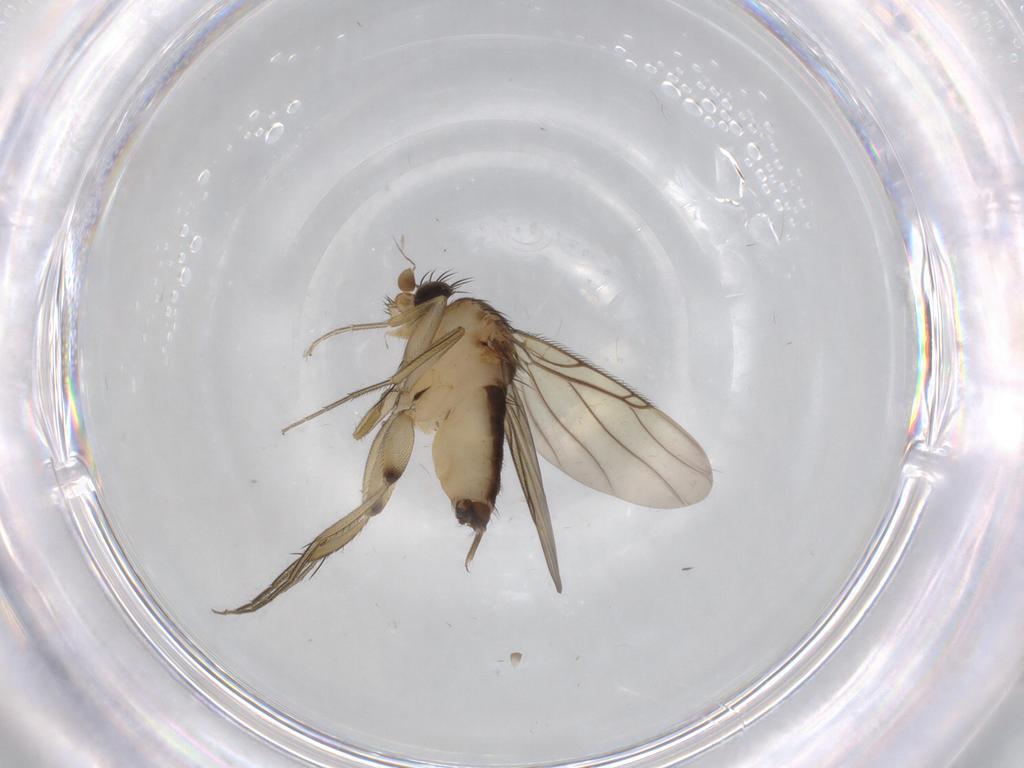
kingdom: Animalia
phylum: Arthropoda
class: Insecta
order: Diptera
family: Phoridae
